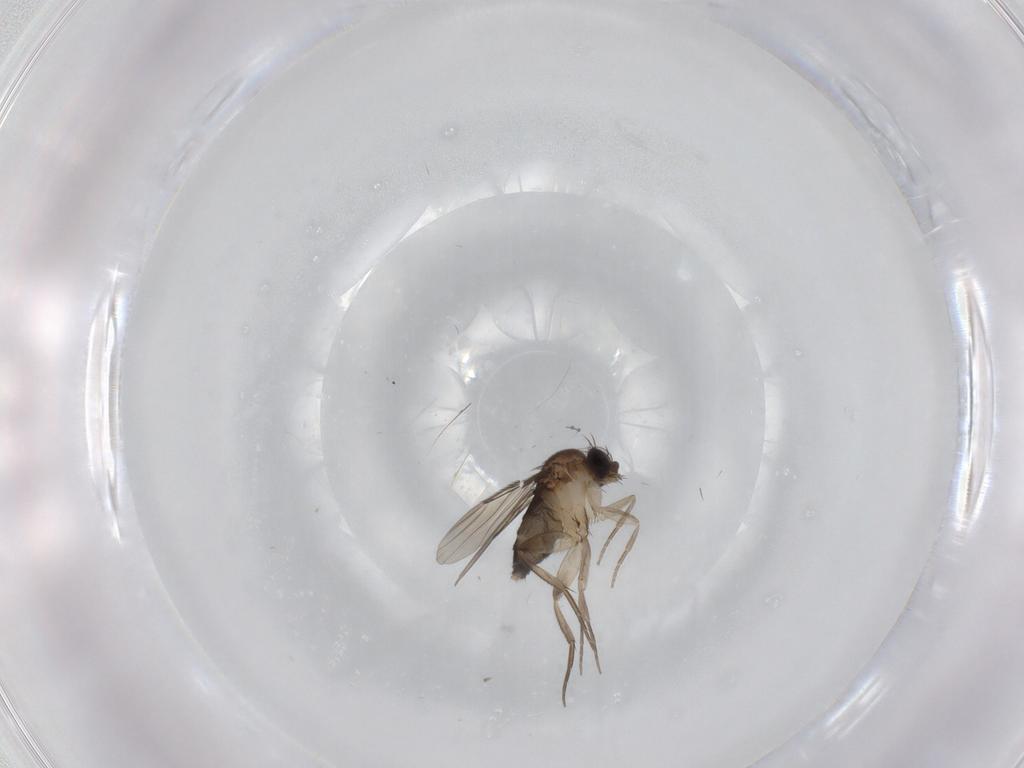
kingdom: Animalia
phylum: Arthropoda
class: Insecta
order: Diptera
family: Phoridae
